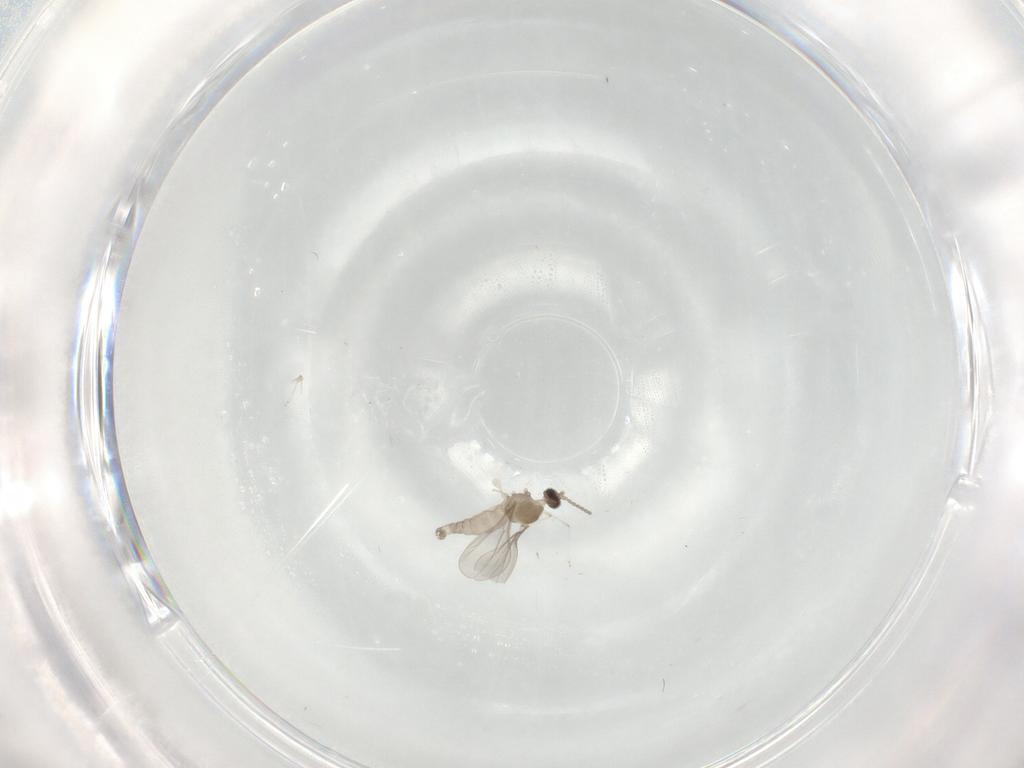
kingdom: Animalia
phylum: Arthropoda
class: Insecta
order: Diptera
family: Cecidomyiidae
